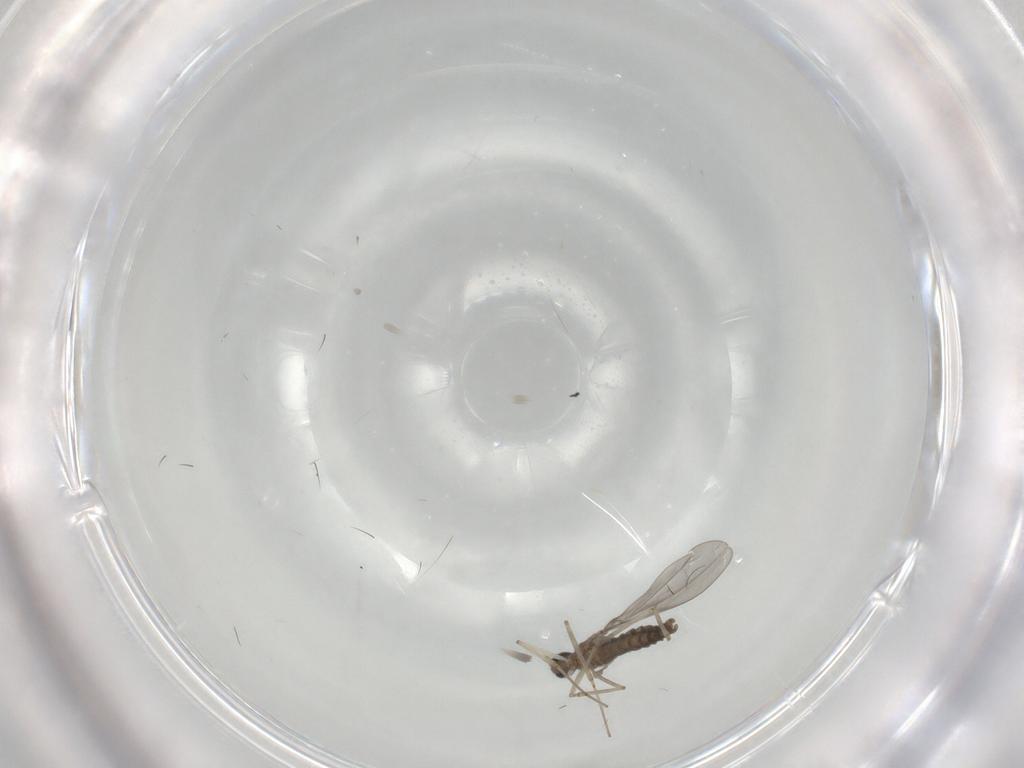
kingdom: Animalia
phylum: Arthropoda
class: Insecta
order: Diptera
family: Cecidomyiidae
